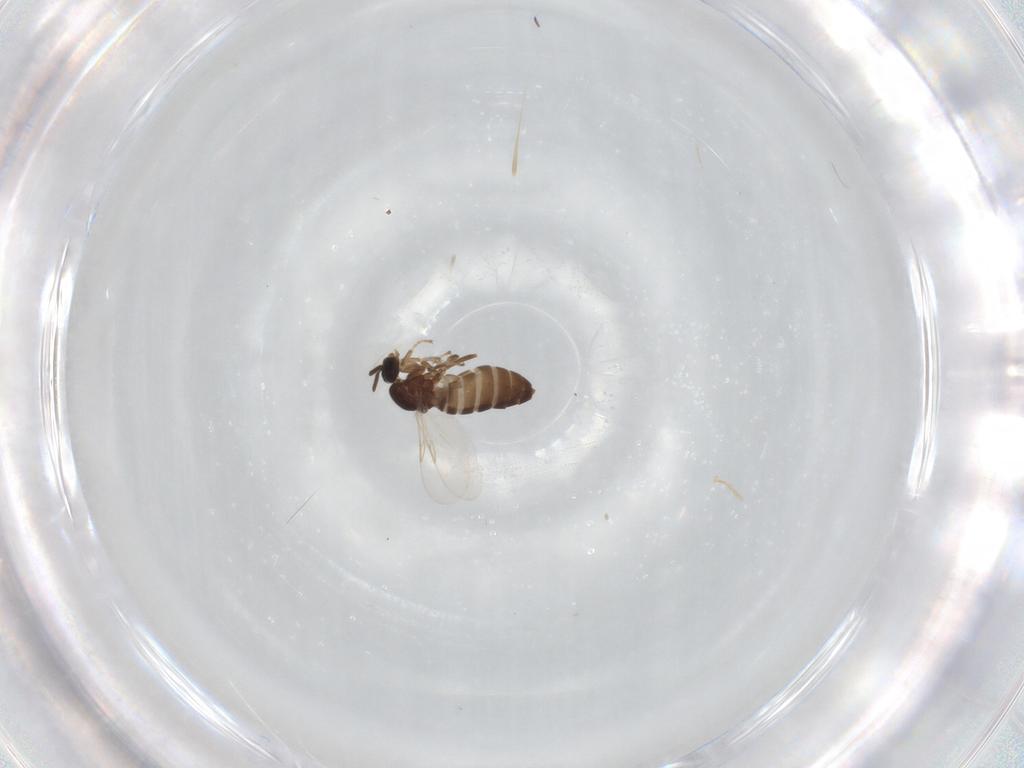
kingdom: Animalia
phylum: Arthropoda
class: Insecta
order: Diptera
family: Scatopsidae
